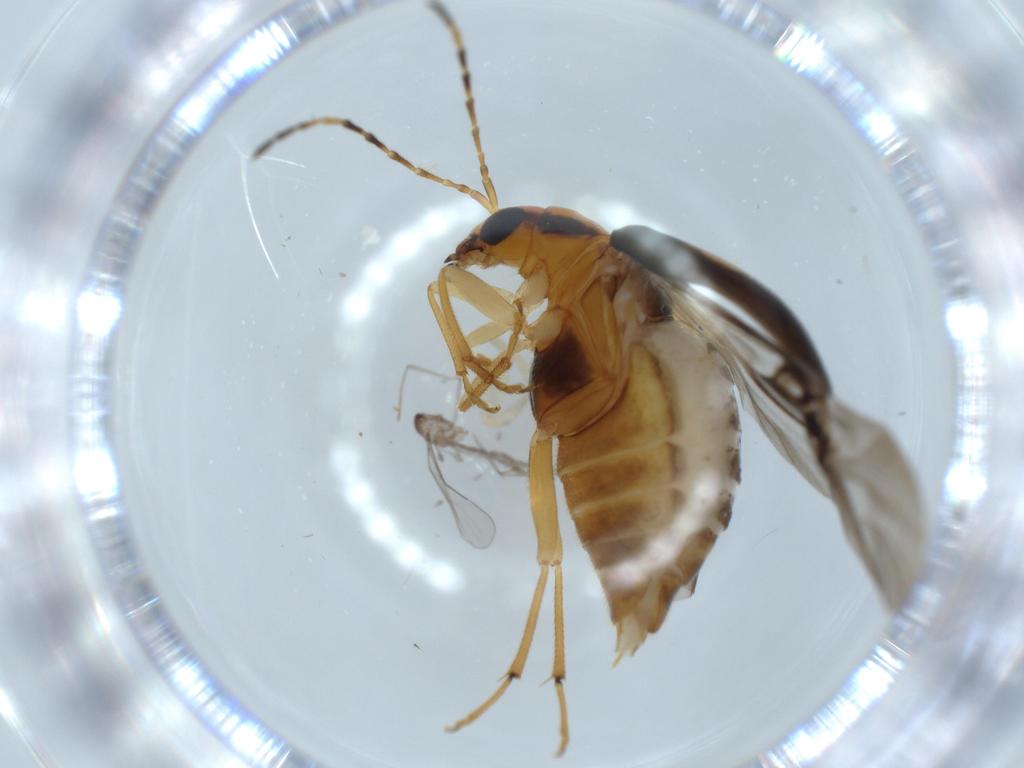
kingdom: Animalia
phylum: Arthropoda
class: Insecta
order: Coleoptera
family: Chrysomelidae
